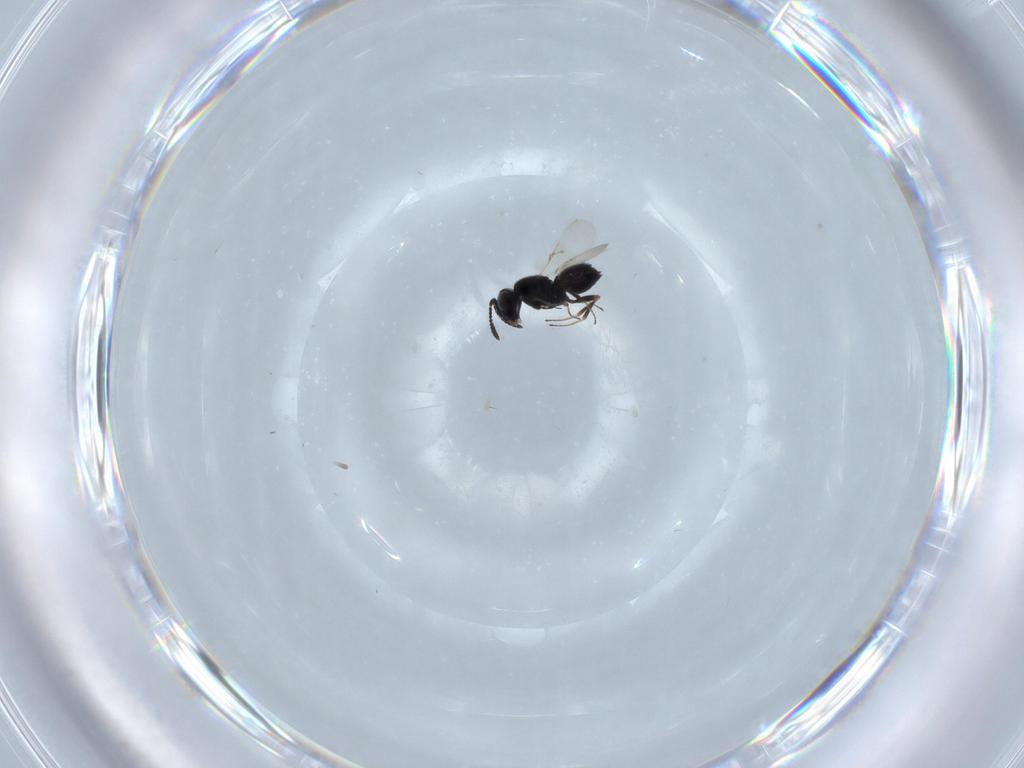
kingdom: Animalia
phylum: Arthropoda
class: Insecta
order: Hymenoptera
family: Scelionidae
